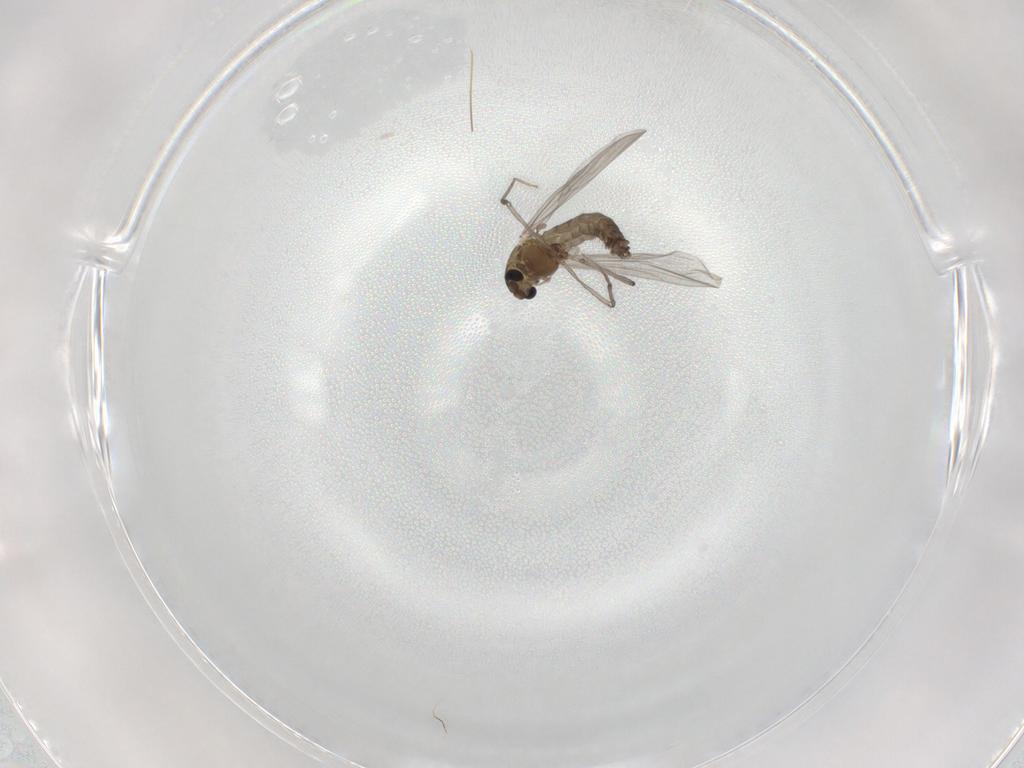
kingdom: Animalia
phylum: Arthropoda
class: Insecta
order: Diptera
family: Chironomidae
